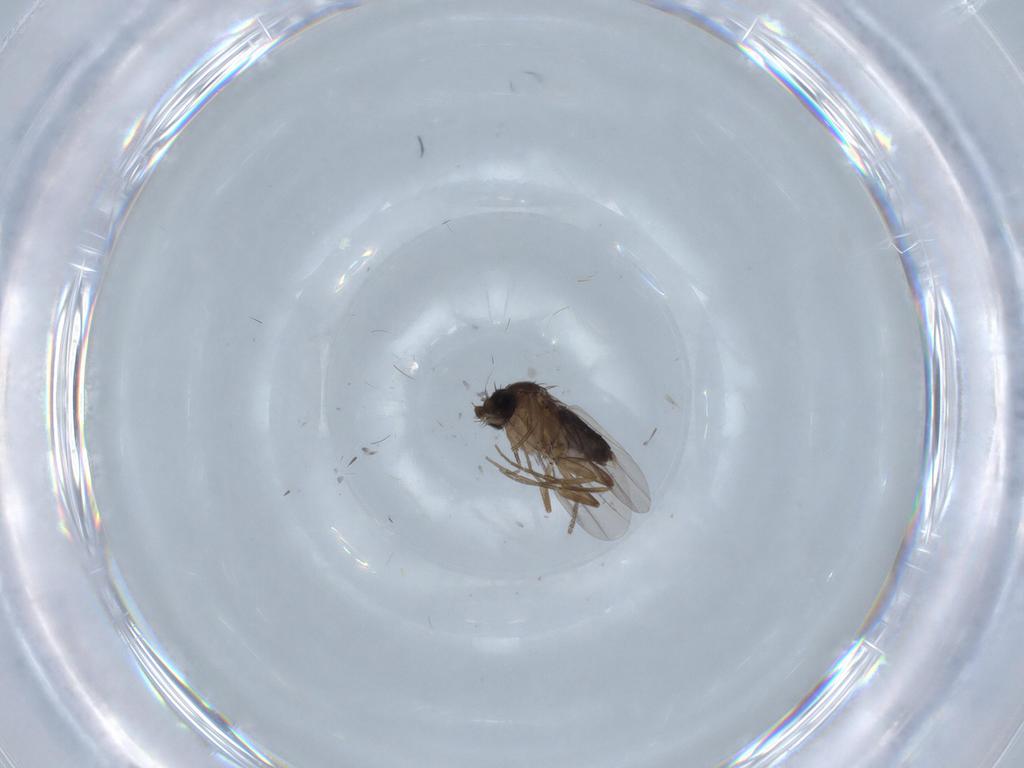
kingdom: Animalia
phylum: Arthropoda
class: Insecta
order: Diptera
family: Phoridae
